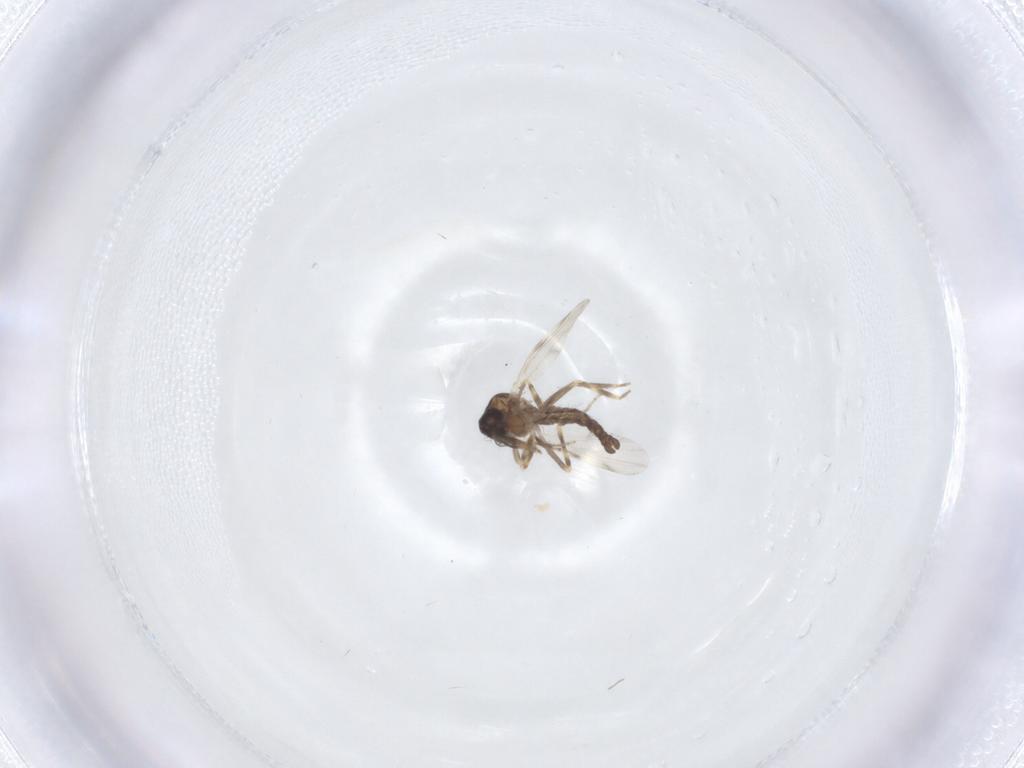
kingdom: Animalia
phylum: Arthropoda
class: Insecta
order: Diptera
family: Ceratopogonidae
